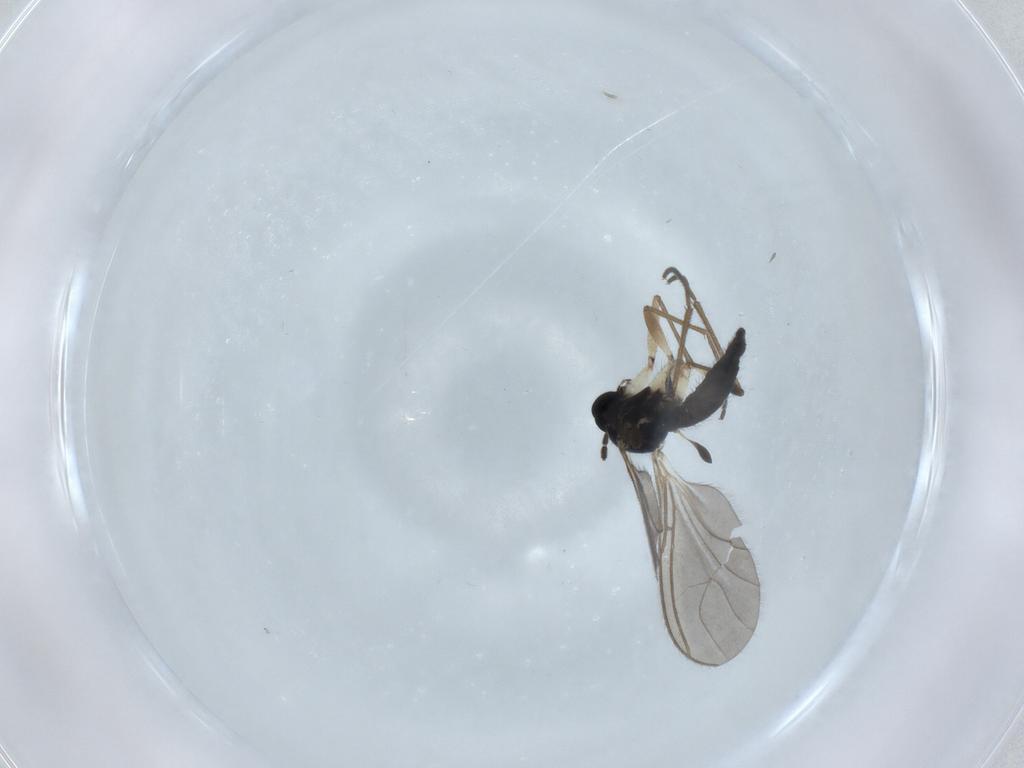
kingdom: Animalia
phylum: Arthropoda
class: Insecta
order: Diptera
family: Sciaridae
